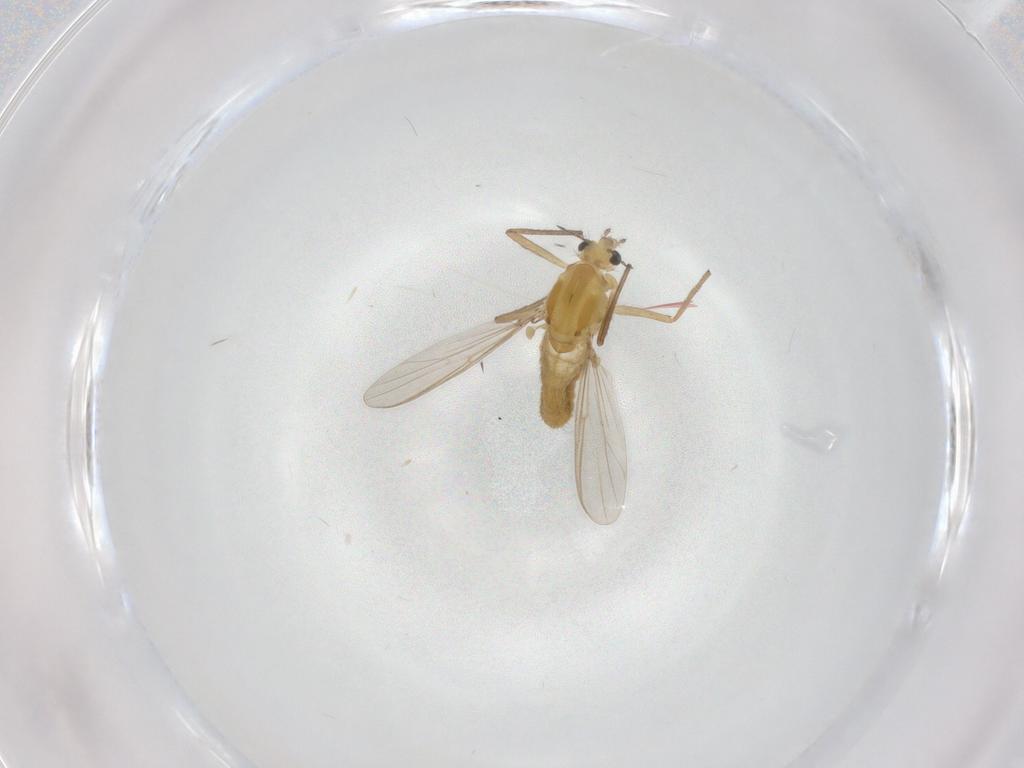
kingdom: Animalia
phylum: Arthropoda
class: Insecta
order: Diptera
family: Chironomidae
